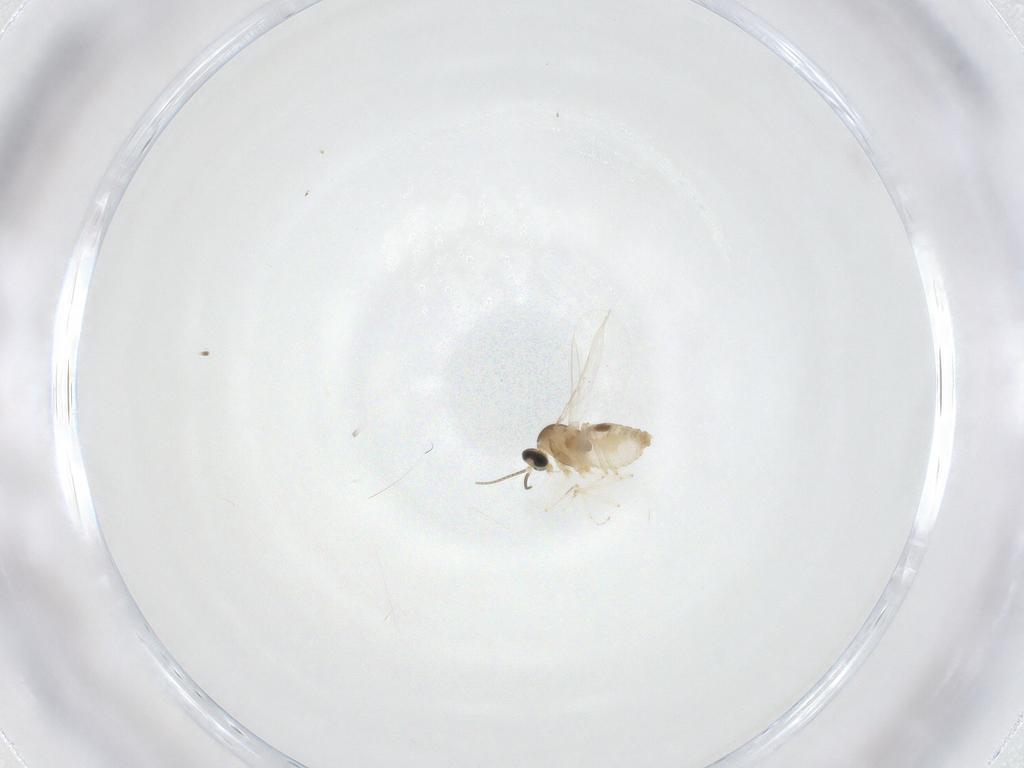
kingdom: Animalia
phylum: Arthropoda
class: Insecta
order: Diptera
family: Cecidomyiidae
